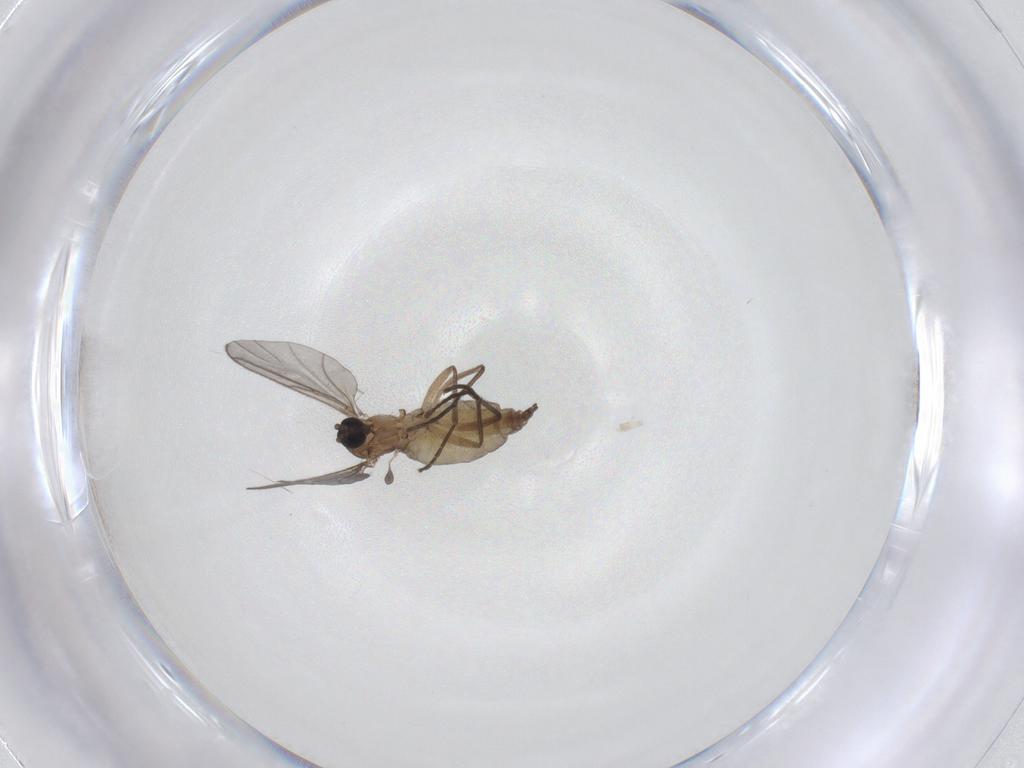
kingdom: Animalia
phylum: Arthropoda
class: Insecta
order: Diptera
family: Sciaridae
